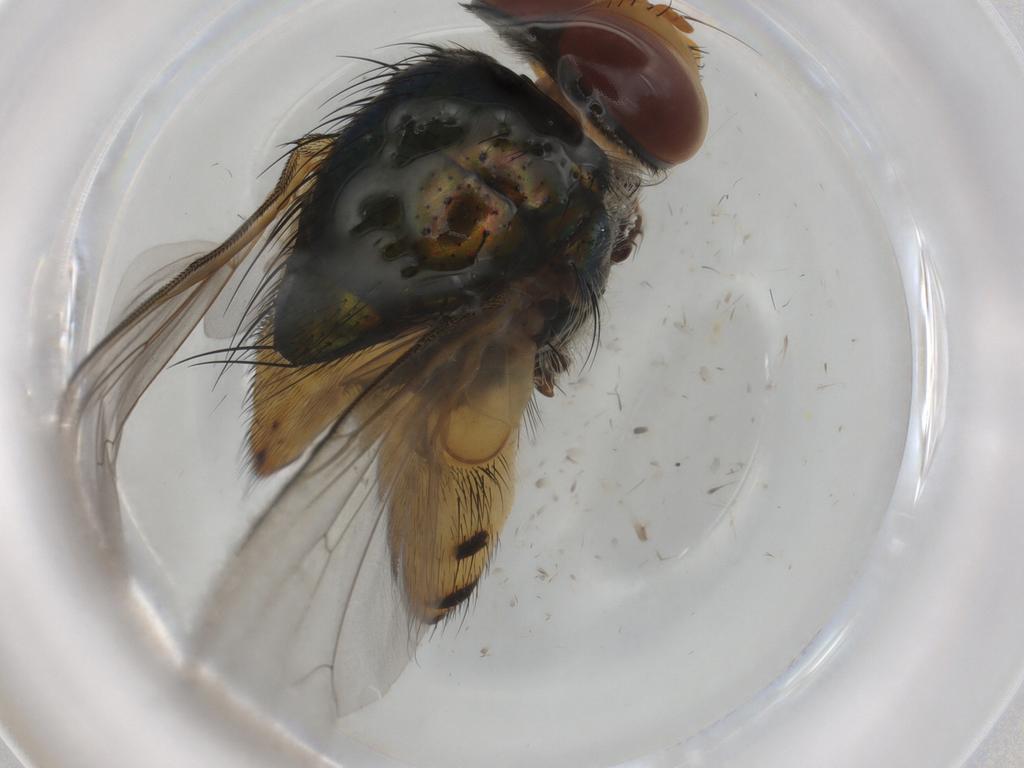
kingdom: Animalia
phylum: Arthropoda
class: Insecta
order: Diptera
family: Calliphoridae
